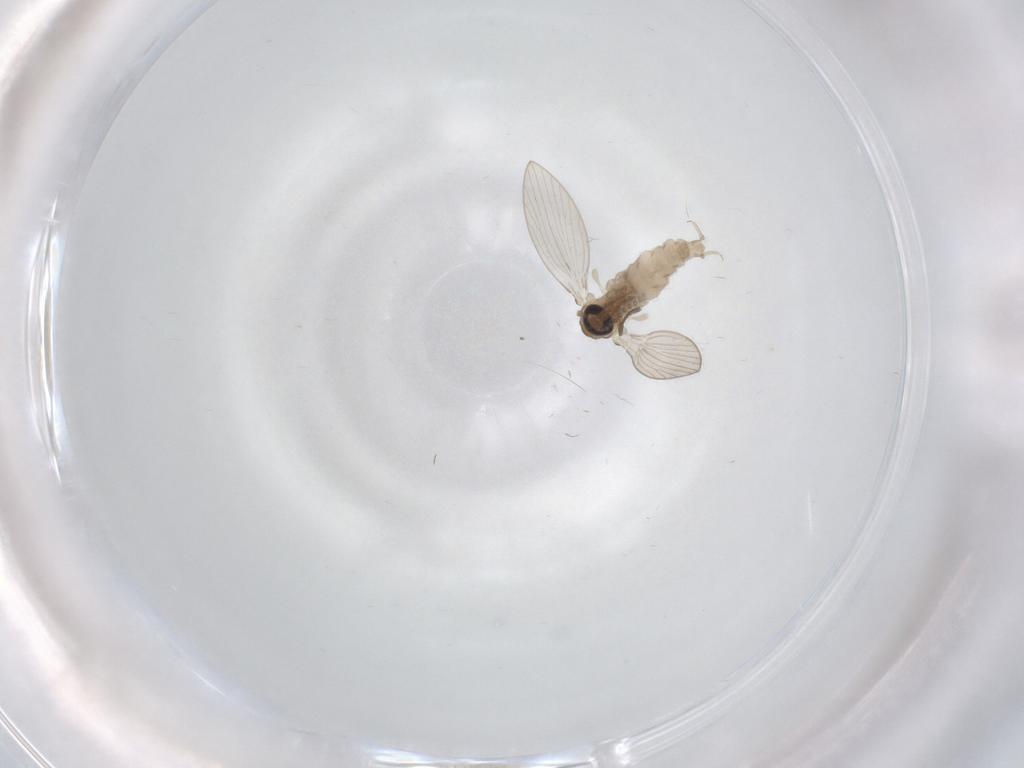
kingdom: Animalia
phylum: Arthropoda
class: Insecta
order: Diptera
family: Psychodidae
